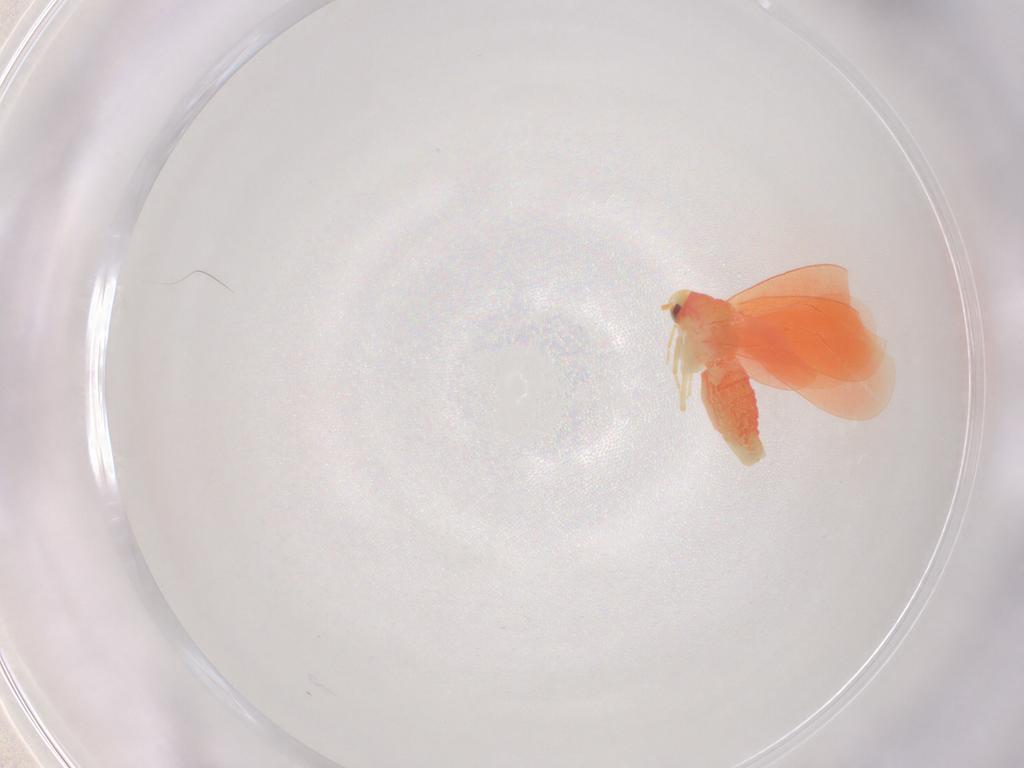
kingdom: Animalia
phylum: Arthropoda
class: Insecta
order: Hemiptera
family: Aleyrodidae
